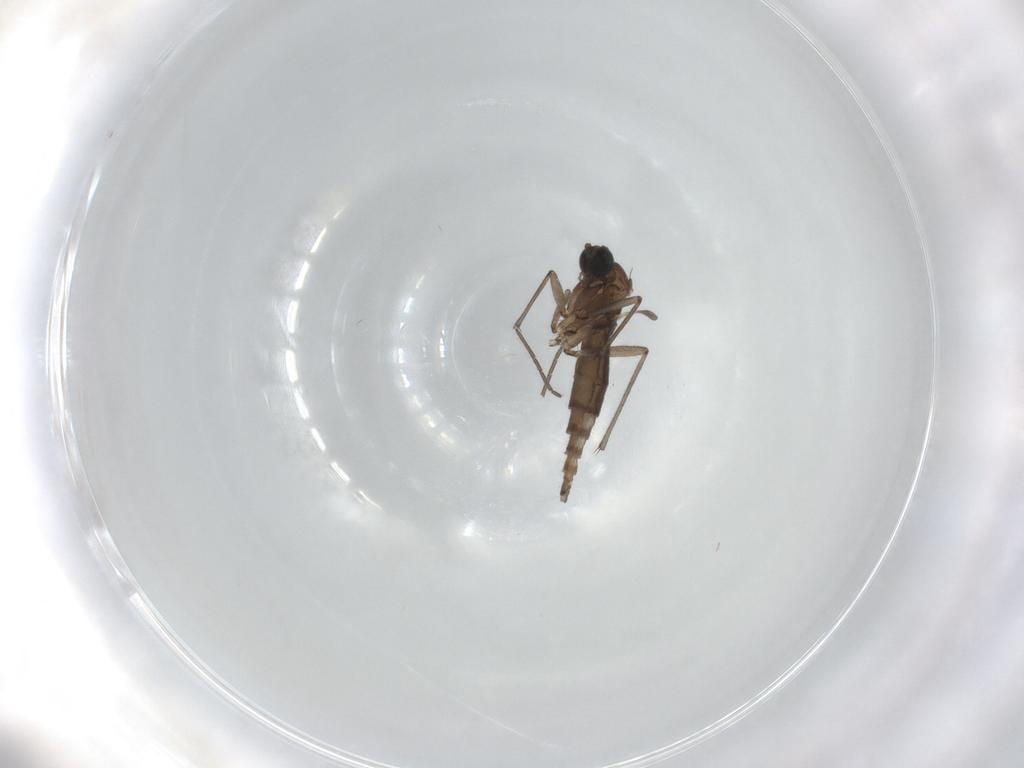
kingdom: Animalia
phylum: Arthropoda
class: Insecta
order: Diptera
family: Sciaridae
